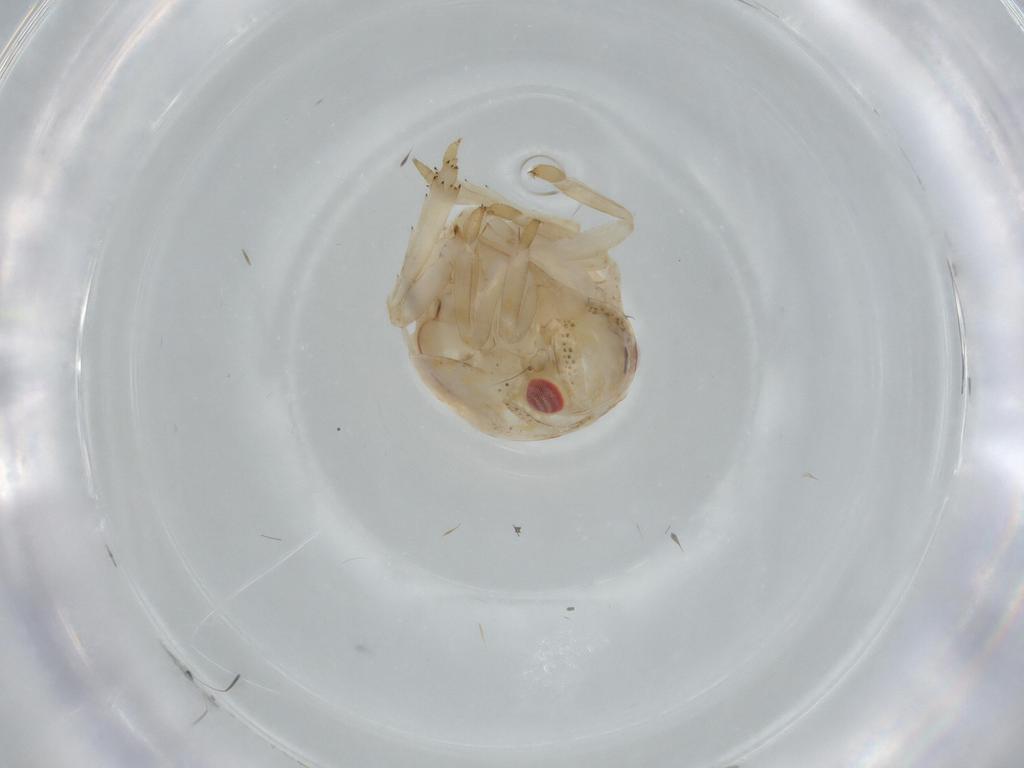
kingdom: Animalia
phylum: Arthropoda
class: Insecta
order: Hemiptera
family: Acanaloniidae
